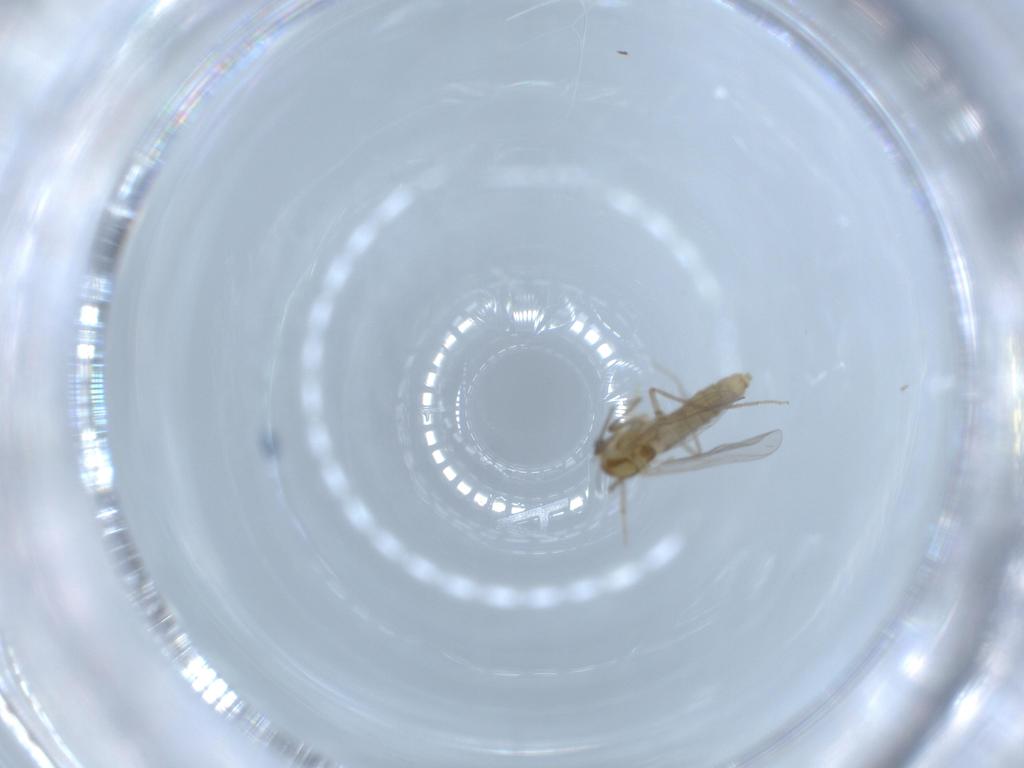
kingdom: Animalia
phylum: Arthropoda
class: Insecta
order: Diptera
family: Chironomidae
